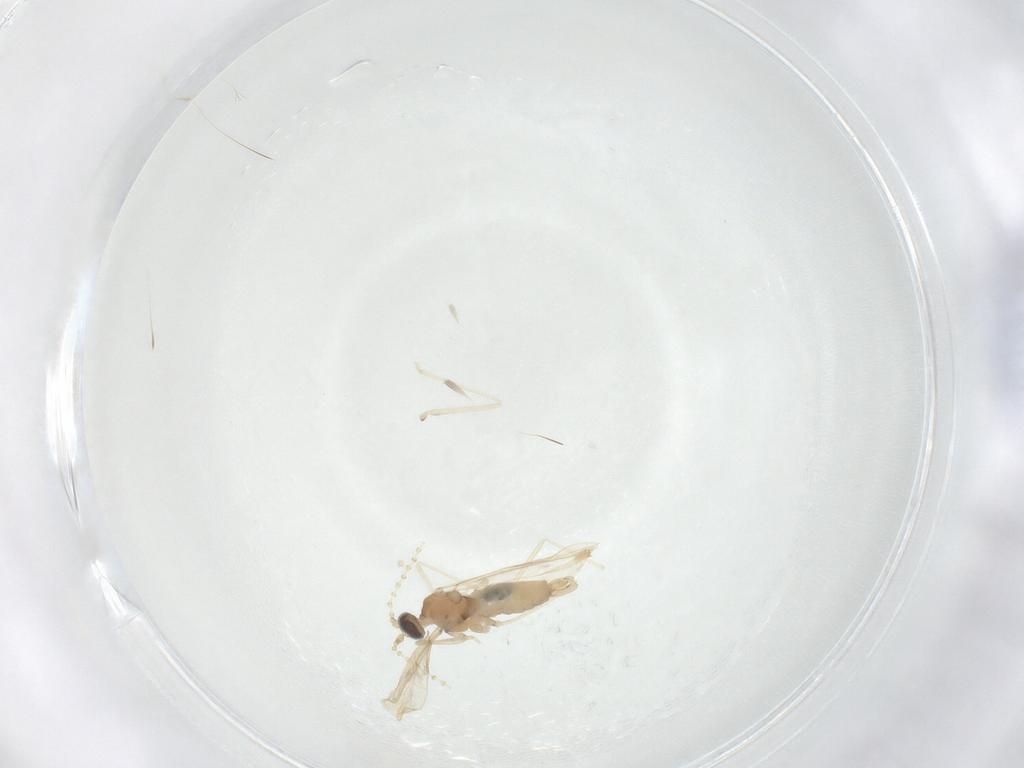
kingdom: Animalia
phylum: Arthropoda
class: Insecta
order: Diptera
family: Cecidomyiidae
